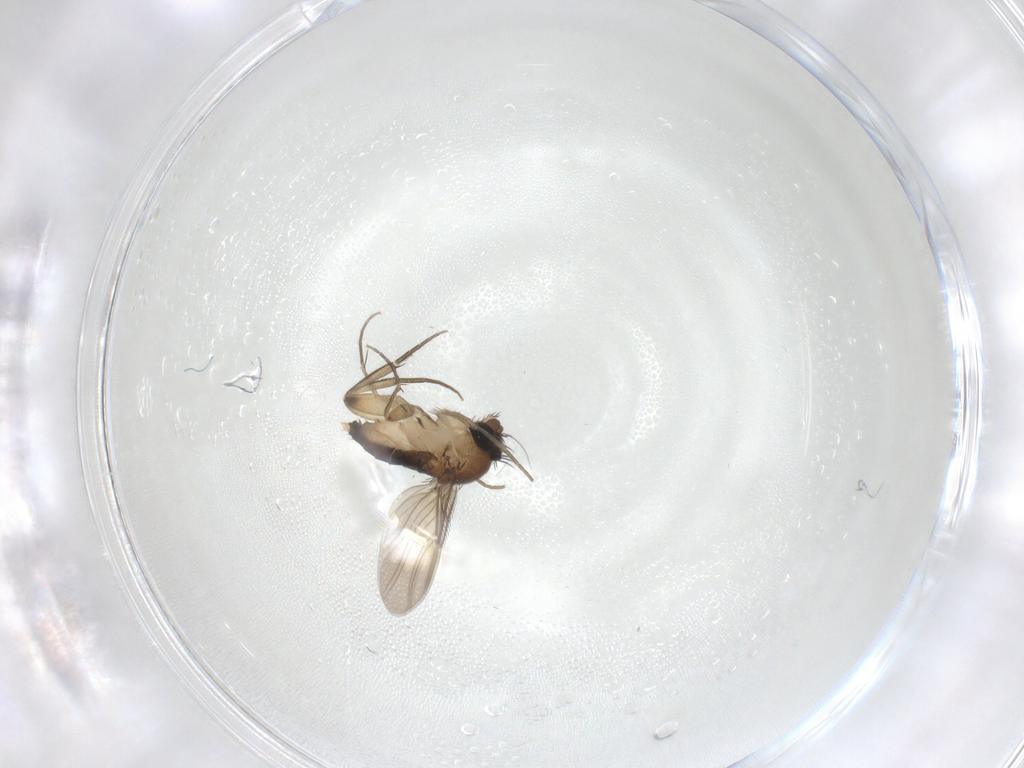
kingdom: Animalia
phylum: Arthropoda
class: Insecta
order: Diptera
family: Phoridae
